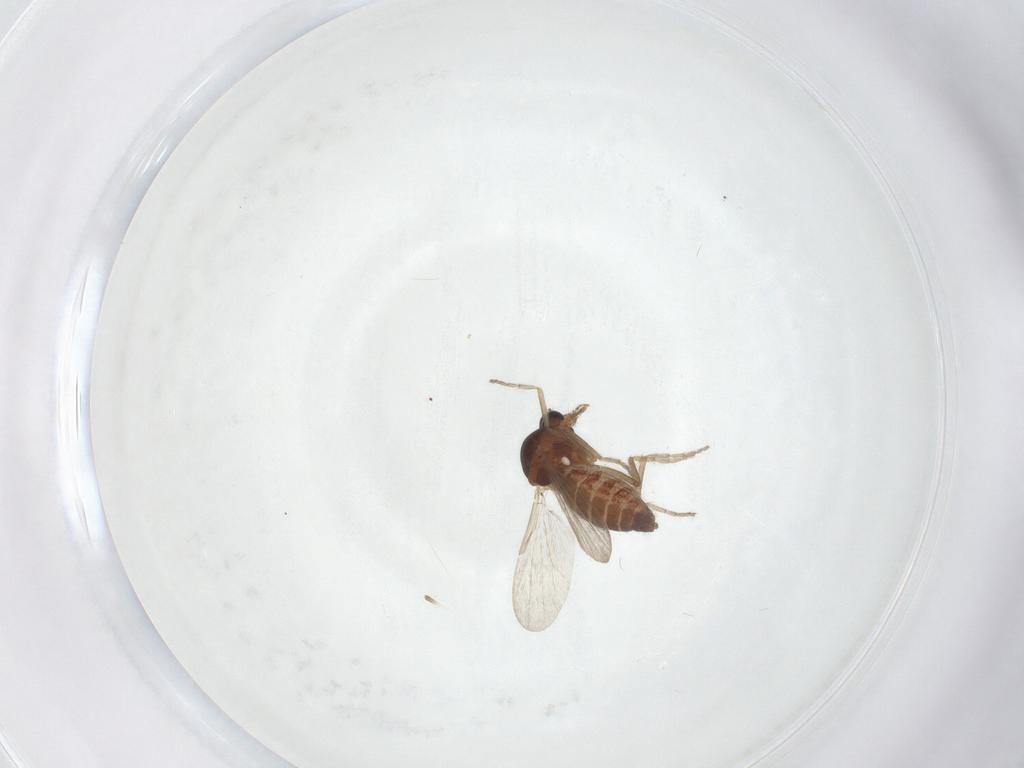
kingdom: Animalia
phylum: Arthropoda
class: Insecta
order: Diptera
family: Ceratopogonidae
